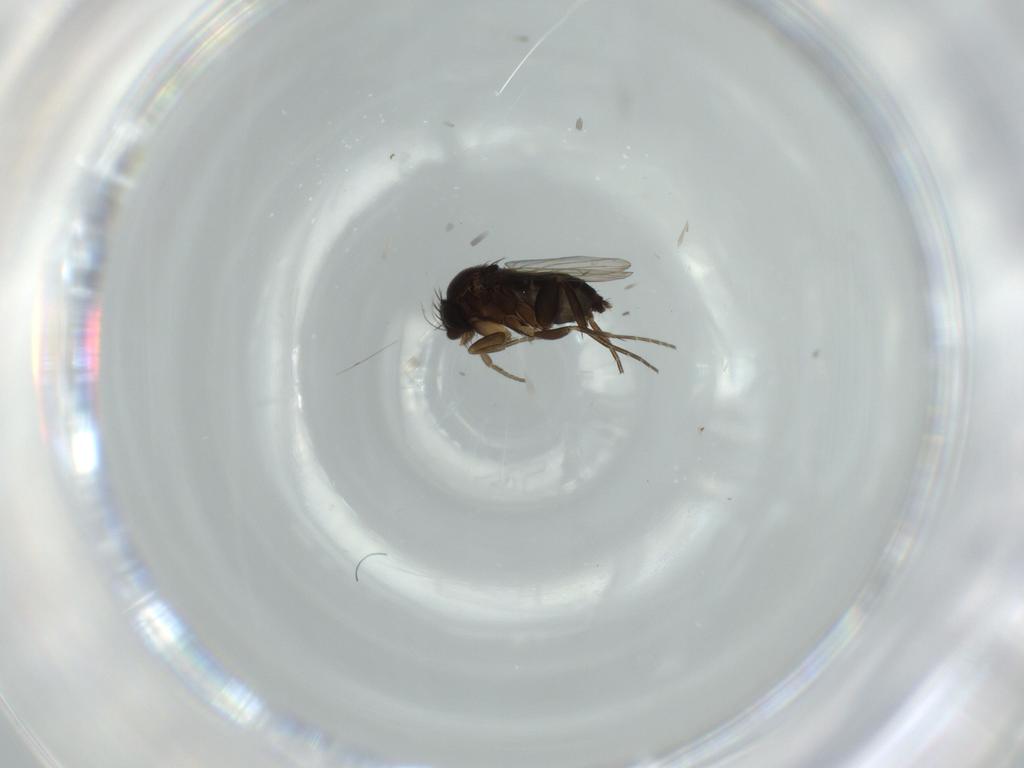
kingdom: Animalia
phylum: Arthropoda
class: Insecta
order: Diptera
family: Phoridae
